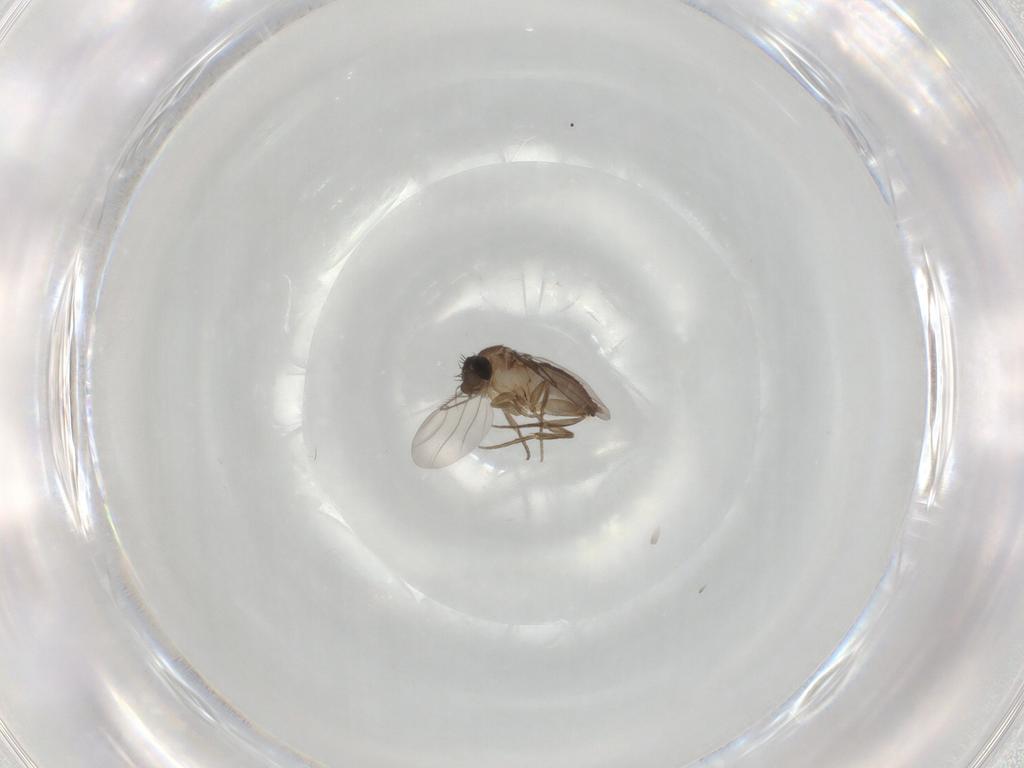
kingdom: Animalia
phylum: Arthropoda
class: Insecta
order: Diptera
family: Phoridae
